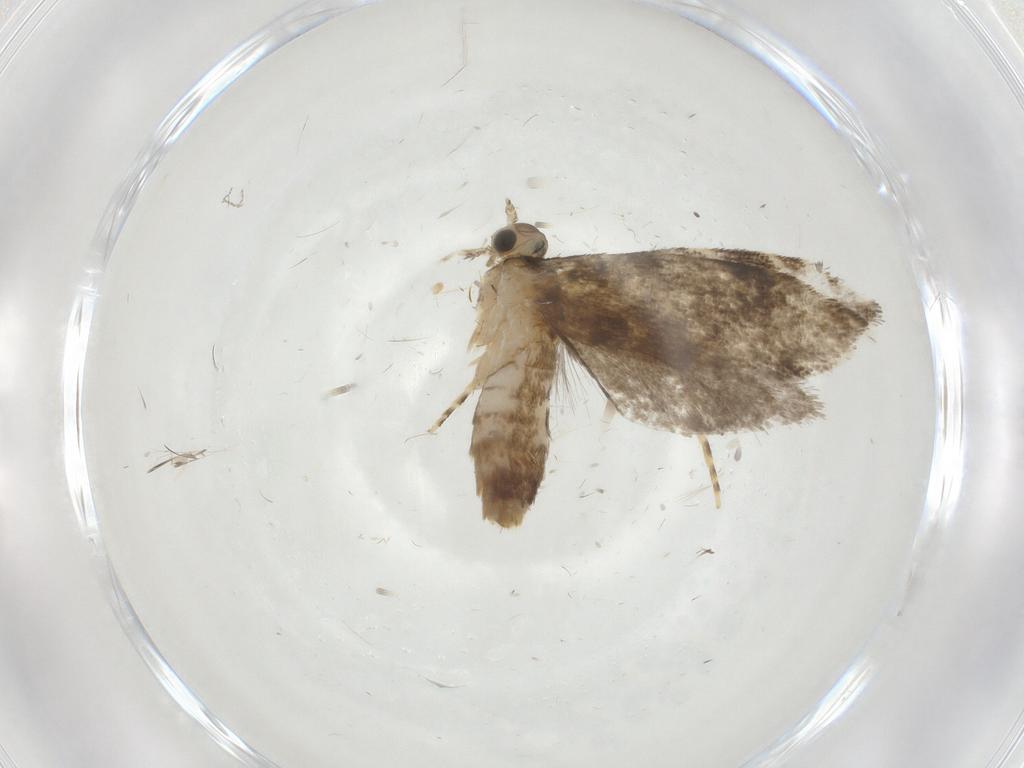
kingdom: Animalia
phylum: Arthropoda
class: Insecta
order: Lepidoptera
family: Tineidae
